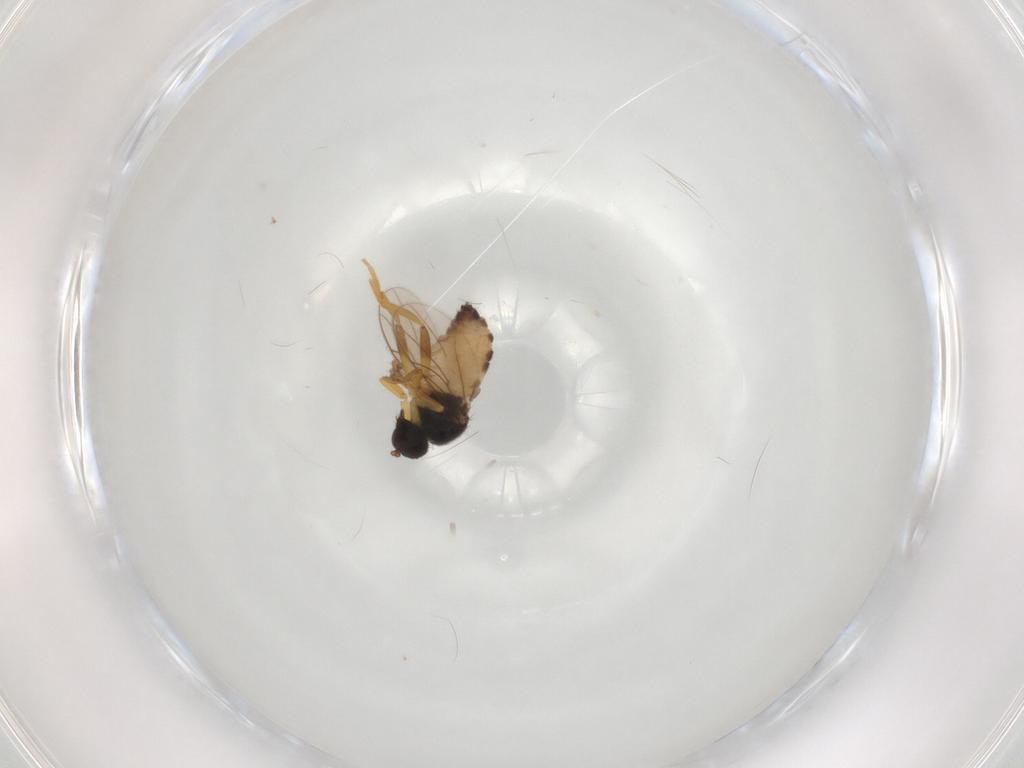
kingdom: Animalia
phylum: Arthropoda
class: Insecta
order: Diptera
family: Hybotidae
